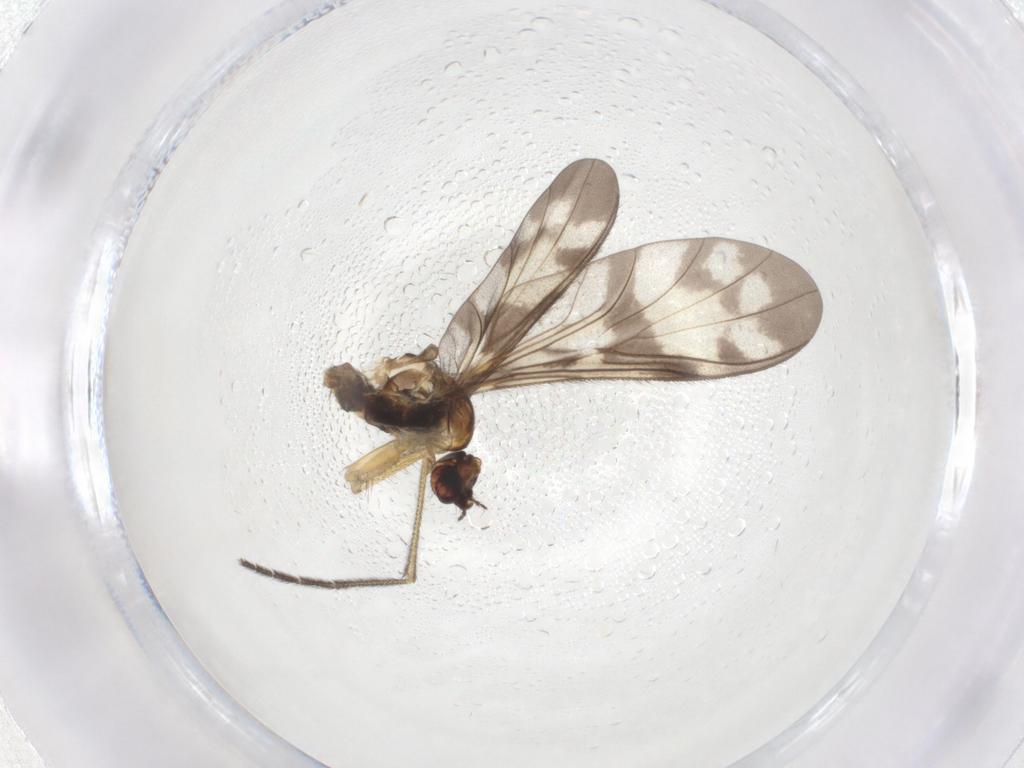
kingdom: Animalia
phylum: Arthropoda
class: Insecta
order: Diptera
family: Keroplatidae
